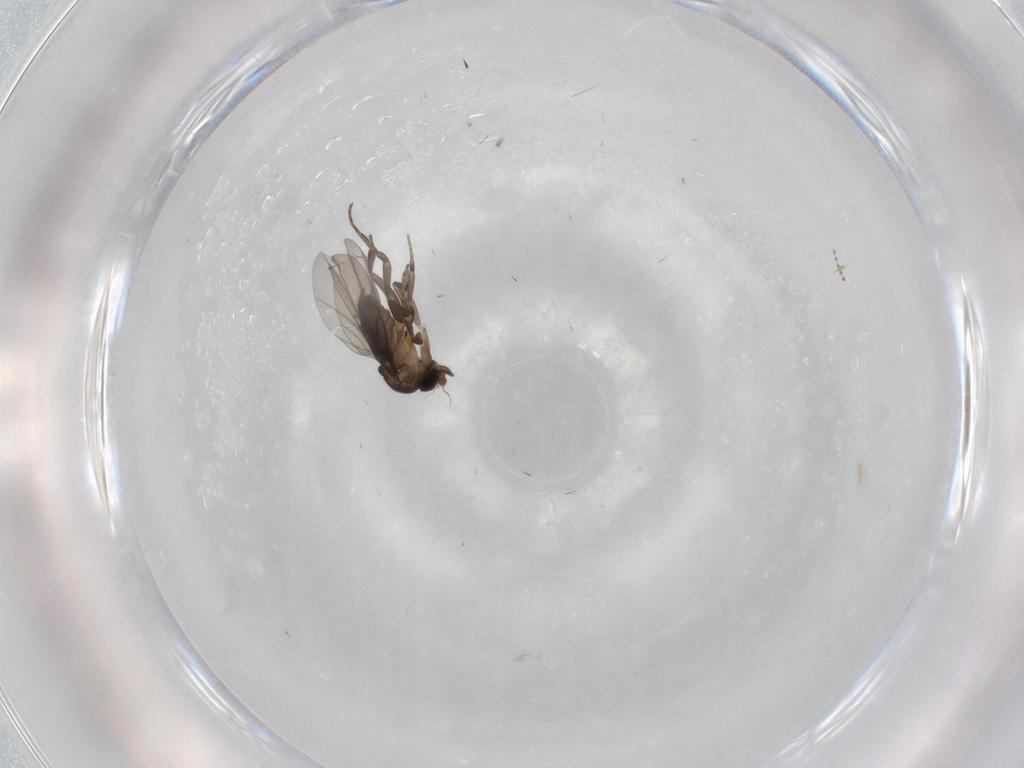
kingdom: Animalia
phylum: Arthropoda
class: Insecta
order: Diptera
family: Phoridae
